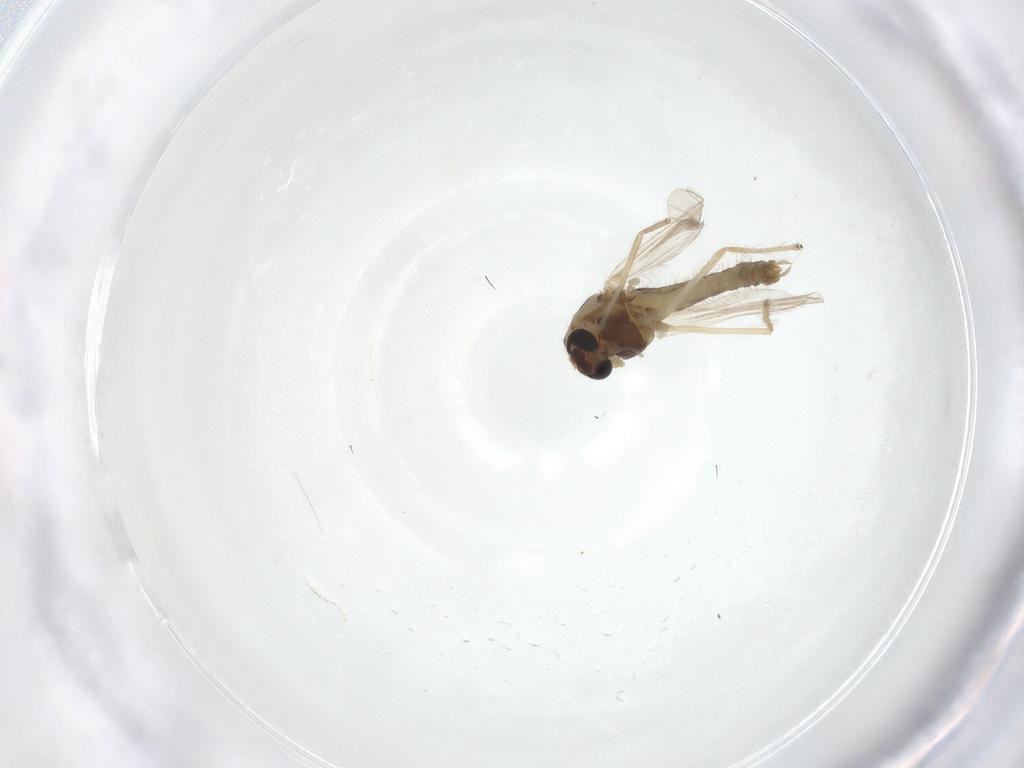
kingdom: Animalia
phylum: Arthropoda
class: Insecta
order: Diptera
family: Chironomidae
